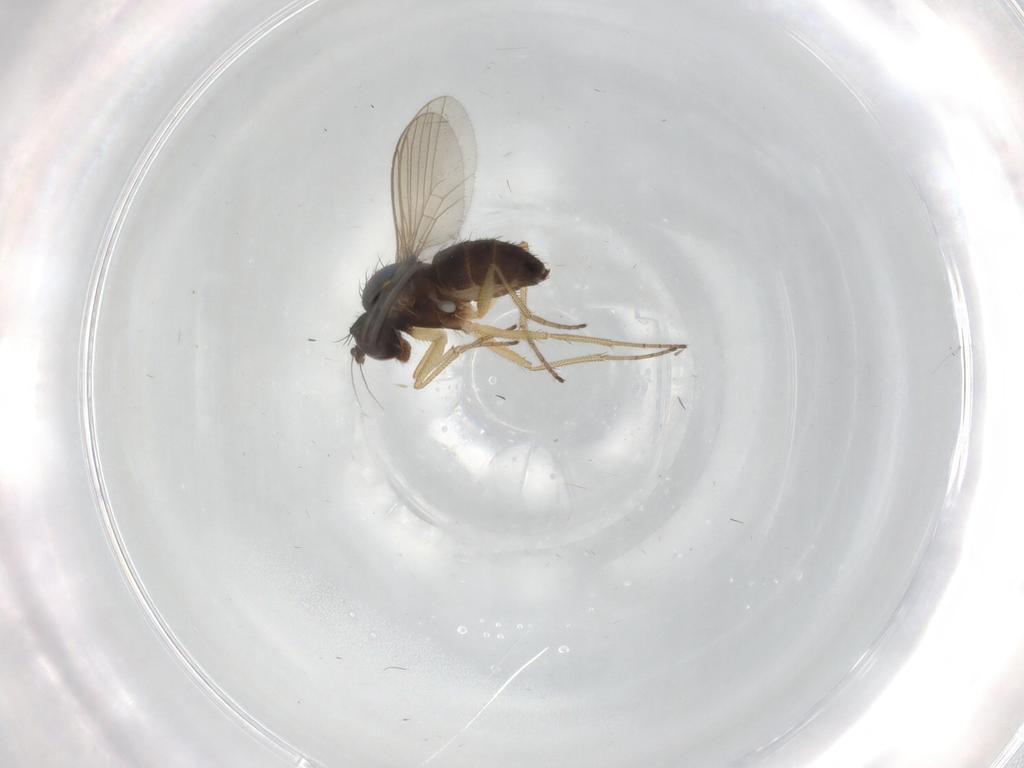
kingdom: Animalia
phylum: Arthropoda
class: Insecta
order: Diptera
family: Dolichopodidae
